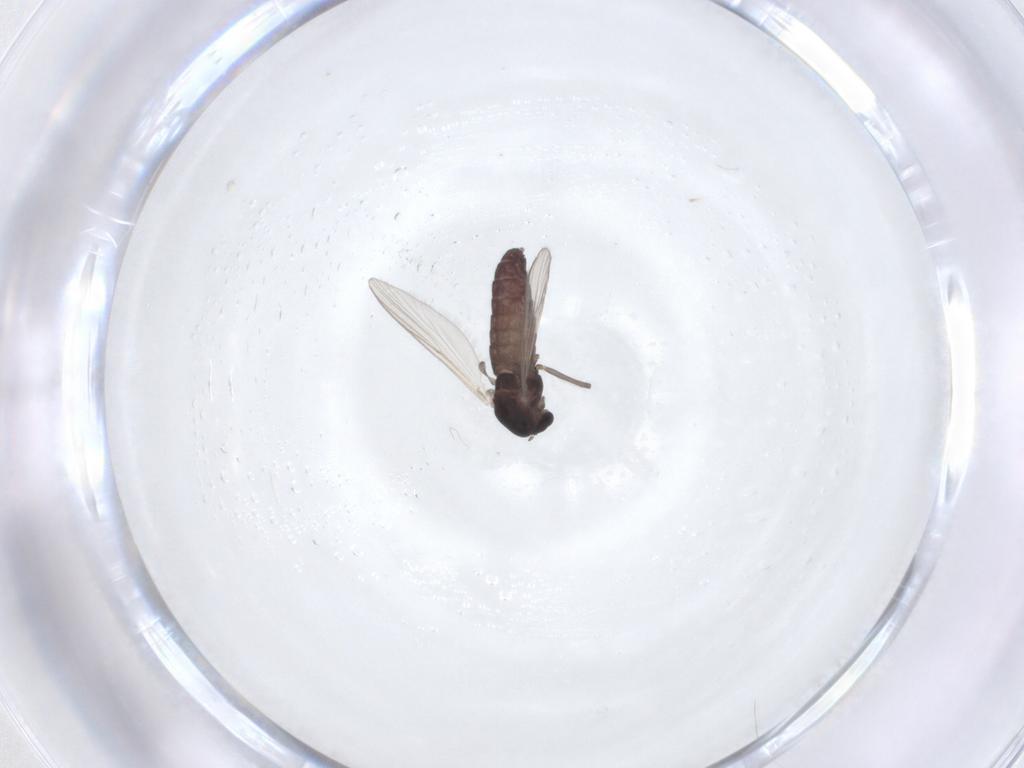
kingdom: Animalia
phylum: Arthropoda
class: Insecta
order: Diptera
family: Chironomidae
